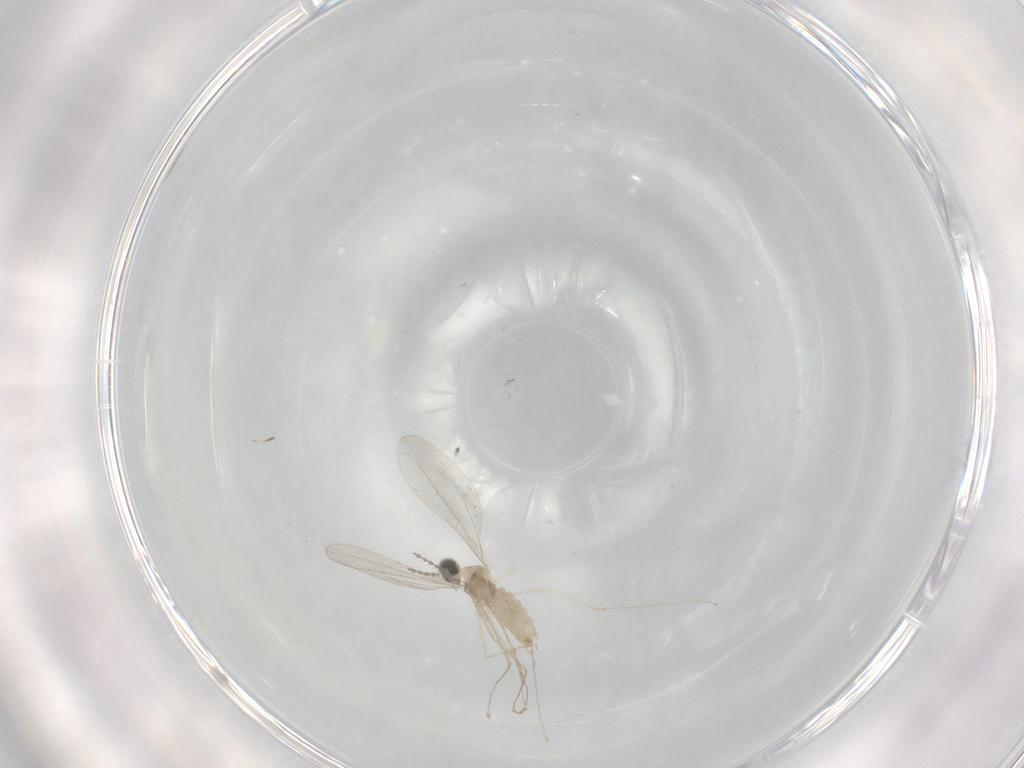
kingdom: Animalia
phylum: Arthropoda
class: Insecta
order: Diptera
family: Cecidomyiidae
